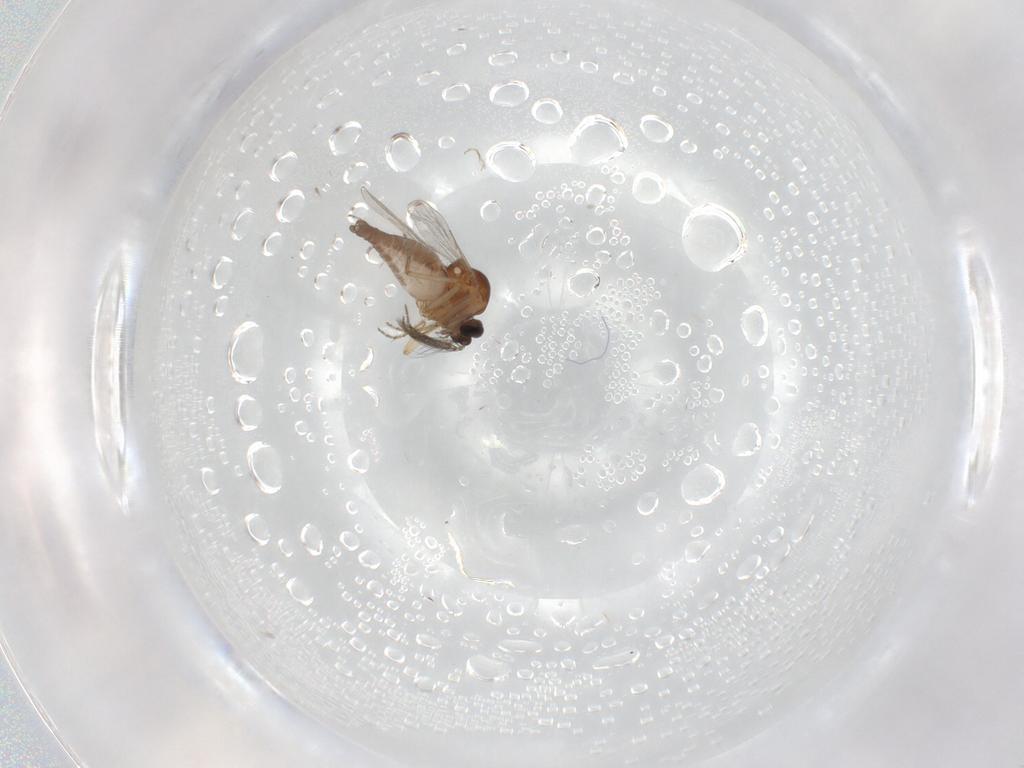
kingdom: Animalia
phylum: Arthropoda
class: Insecta
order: Diptera
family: Ceratopogonidae
